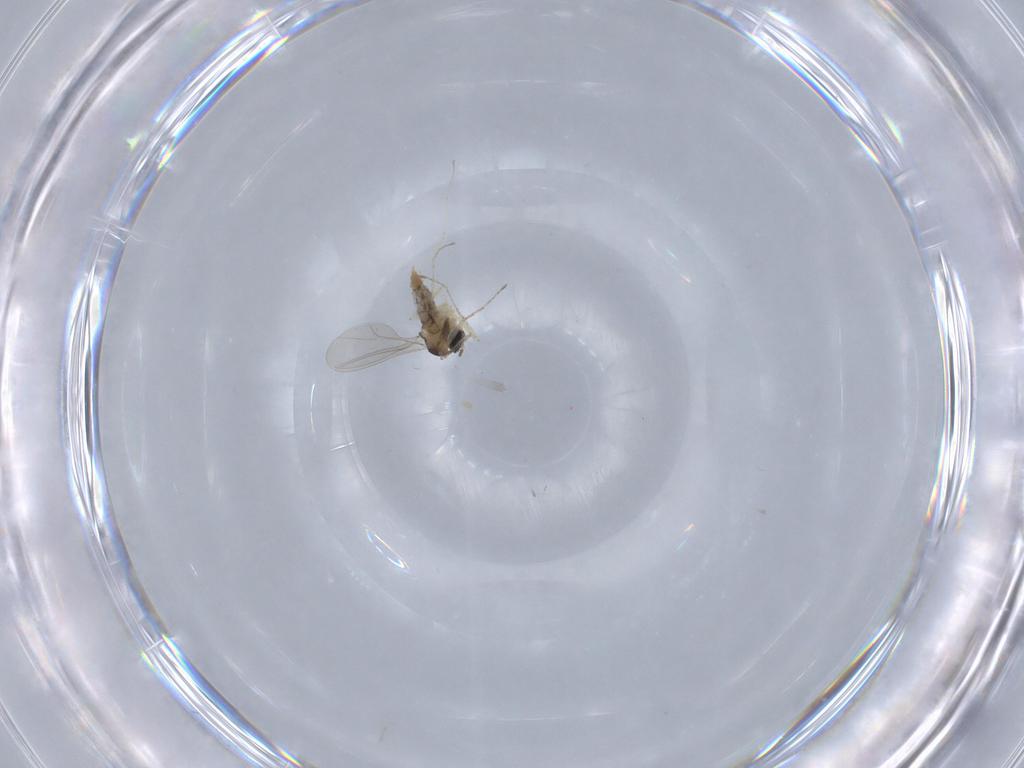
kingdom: Animalia
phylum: Arthropoda
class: Insecta
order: Diptera
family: Cecidomyiidae
